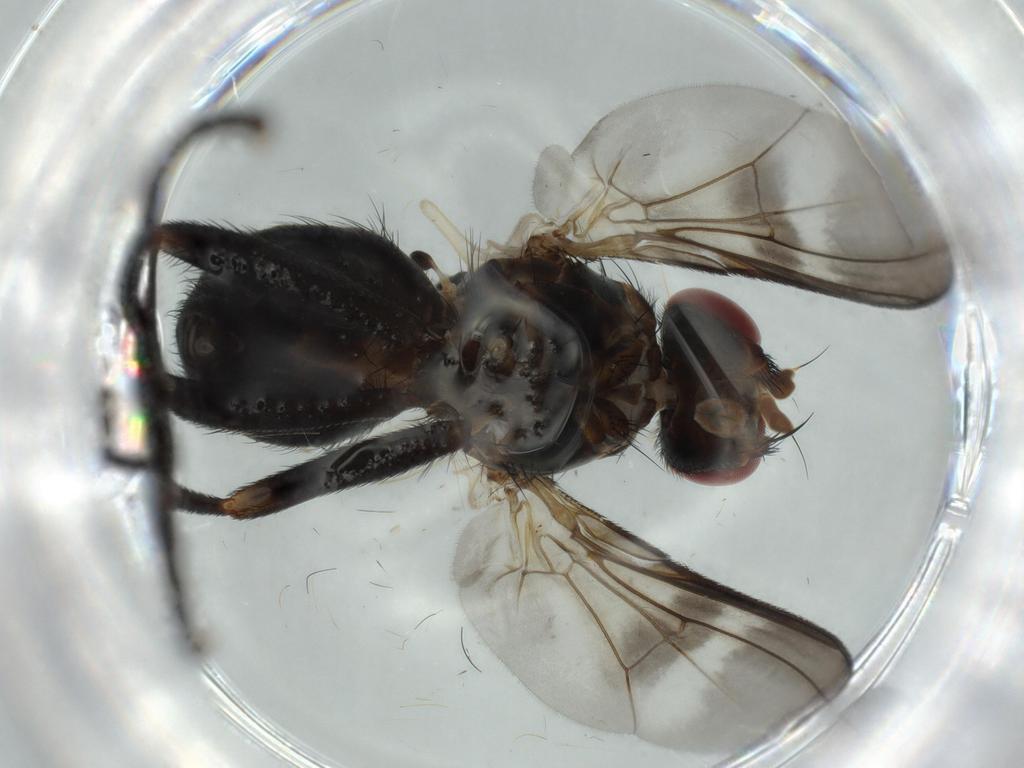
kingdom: Animalia
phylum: Arthropoda
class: Insecta
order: Diptera
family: Calliphoridae
